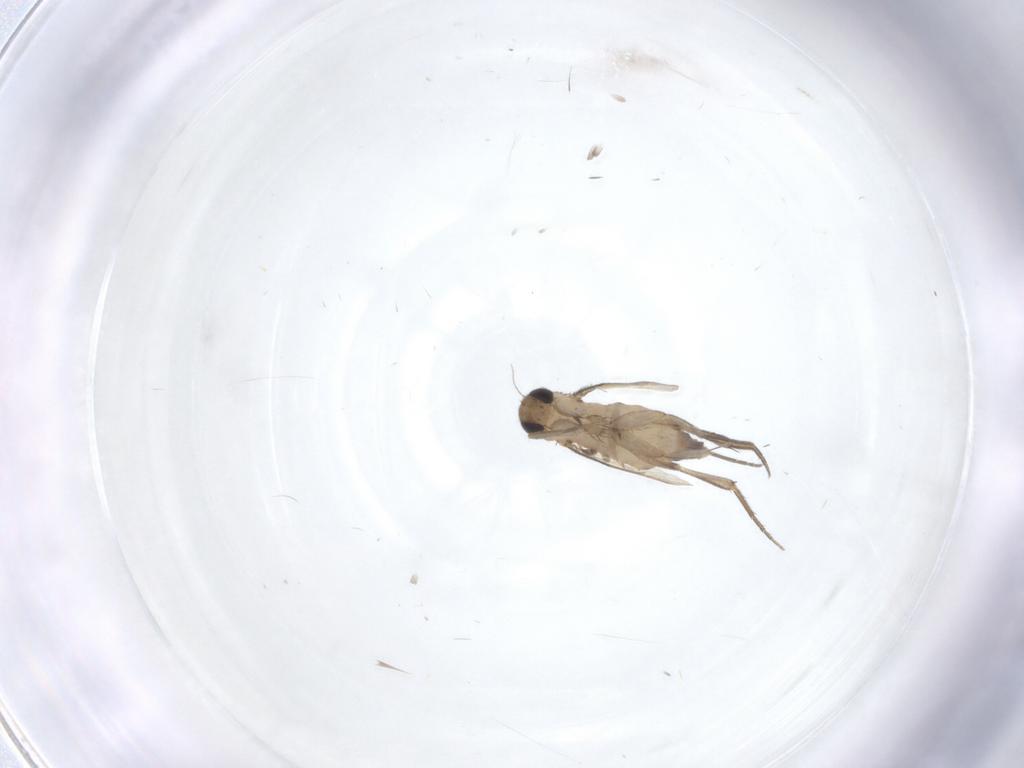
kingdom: Animalia
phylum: Arthropoda
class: Insecta
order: Diptera
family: Phoridae
